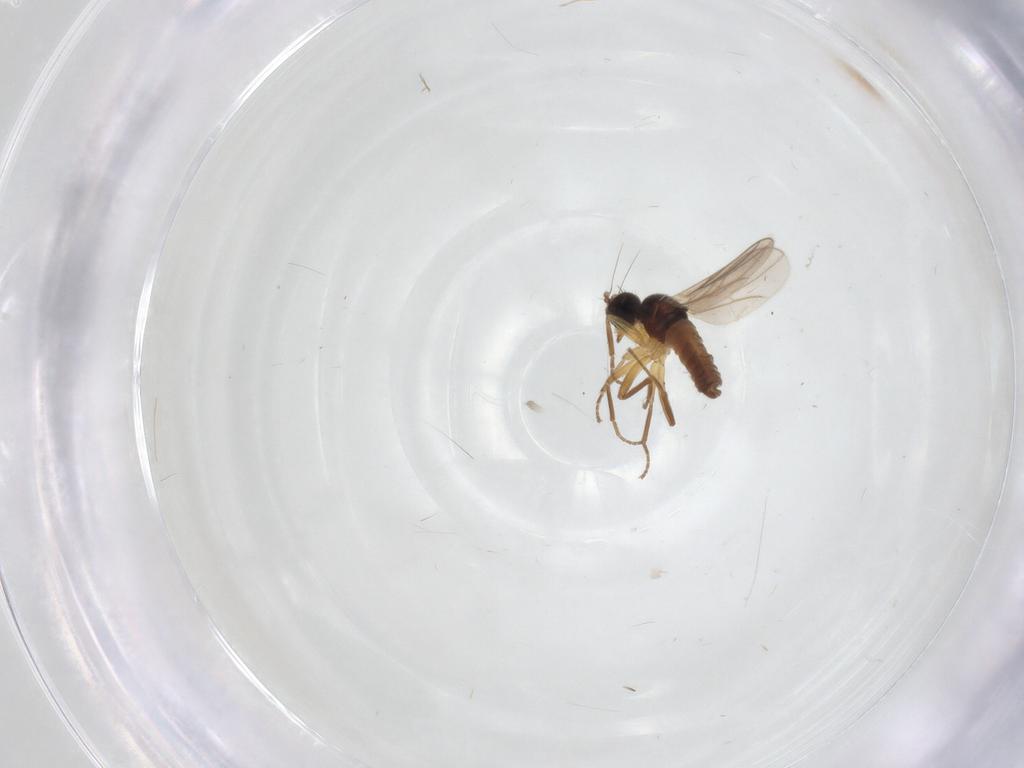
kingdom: Animalia
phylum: Arthropoda
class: Insecta
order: Diptera
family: Hybotidae
